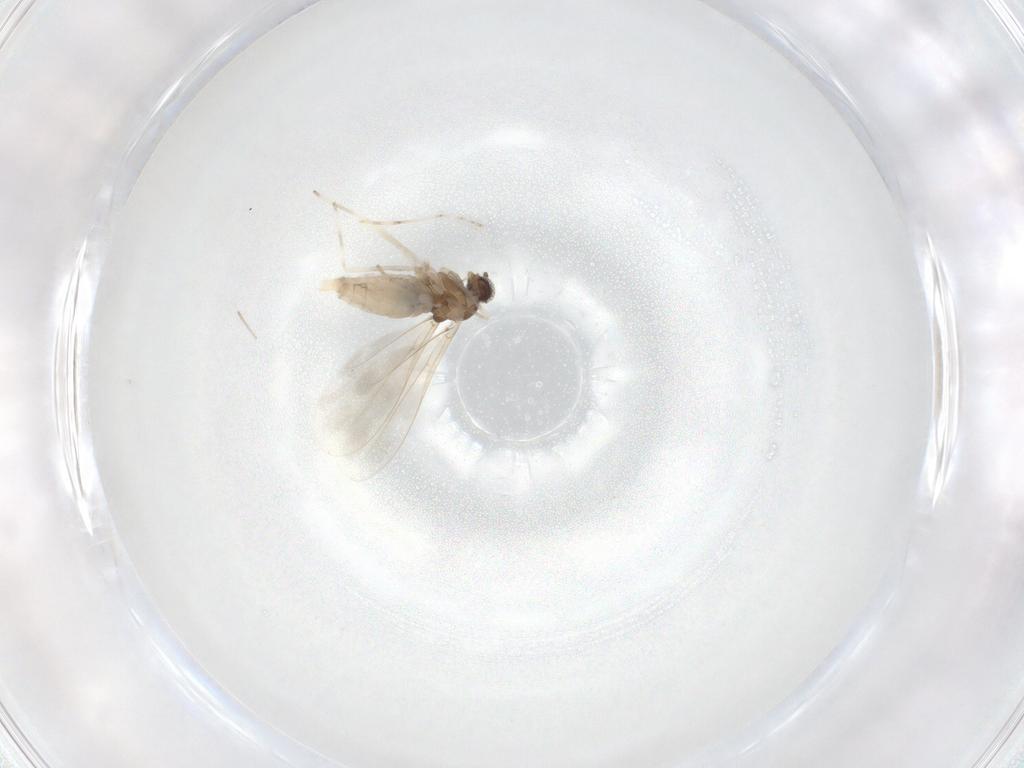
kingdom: Animalia
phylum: Arthropoda
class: Insecta
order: Diptera
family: Cecidomyiidae
